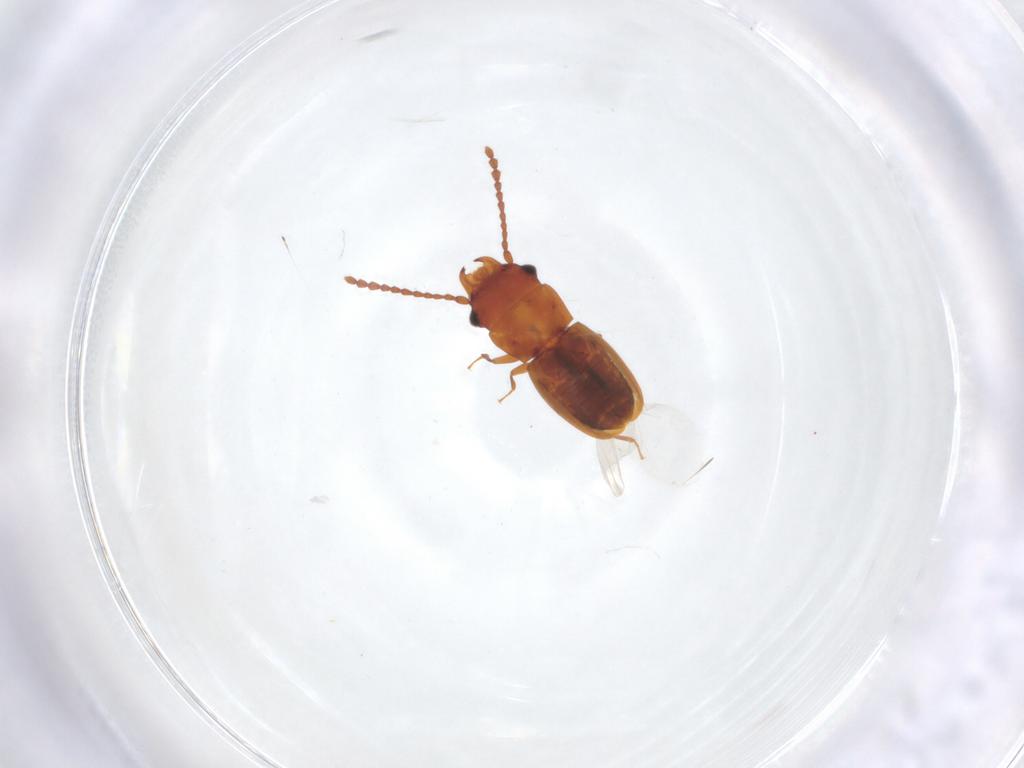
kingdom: Animalia
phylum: Arthropoda
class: Insecta
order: Coleoptera
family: Laemophloeidae
